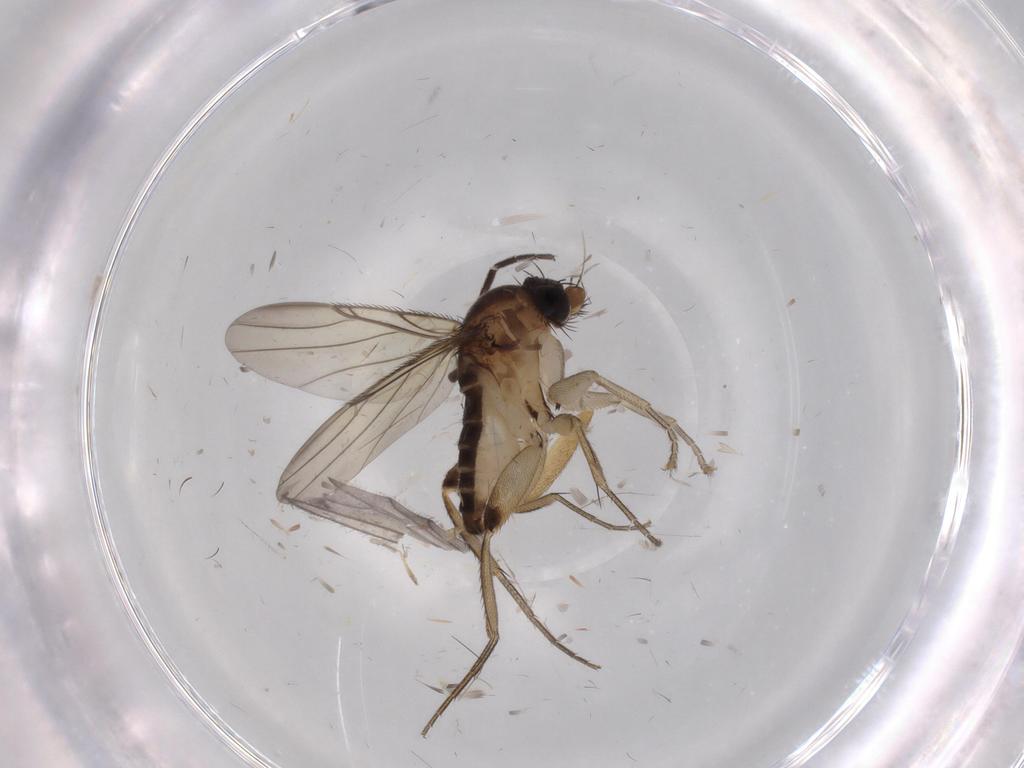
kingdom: Animalia
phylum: Arthropoda
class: Insecta
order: Diptera
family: Phoridae
